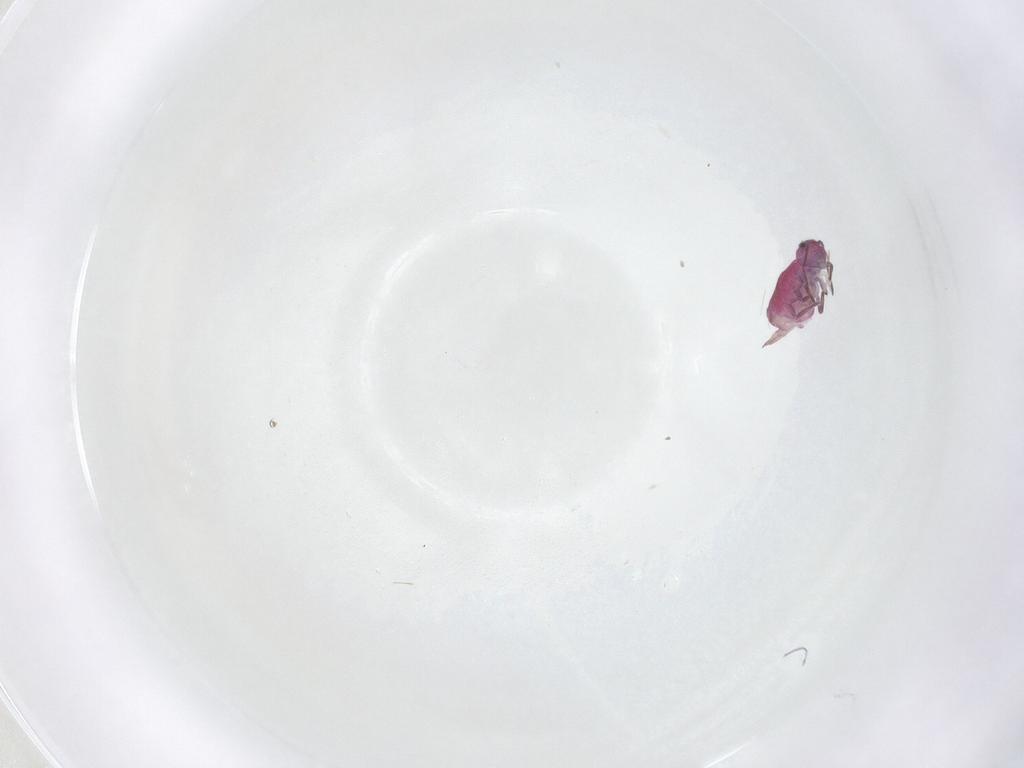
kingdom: Animalia
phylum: Arthropoda
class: Collembola
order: Symphypleona
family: Sminthuridae
